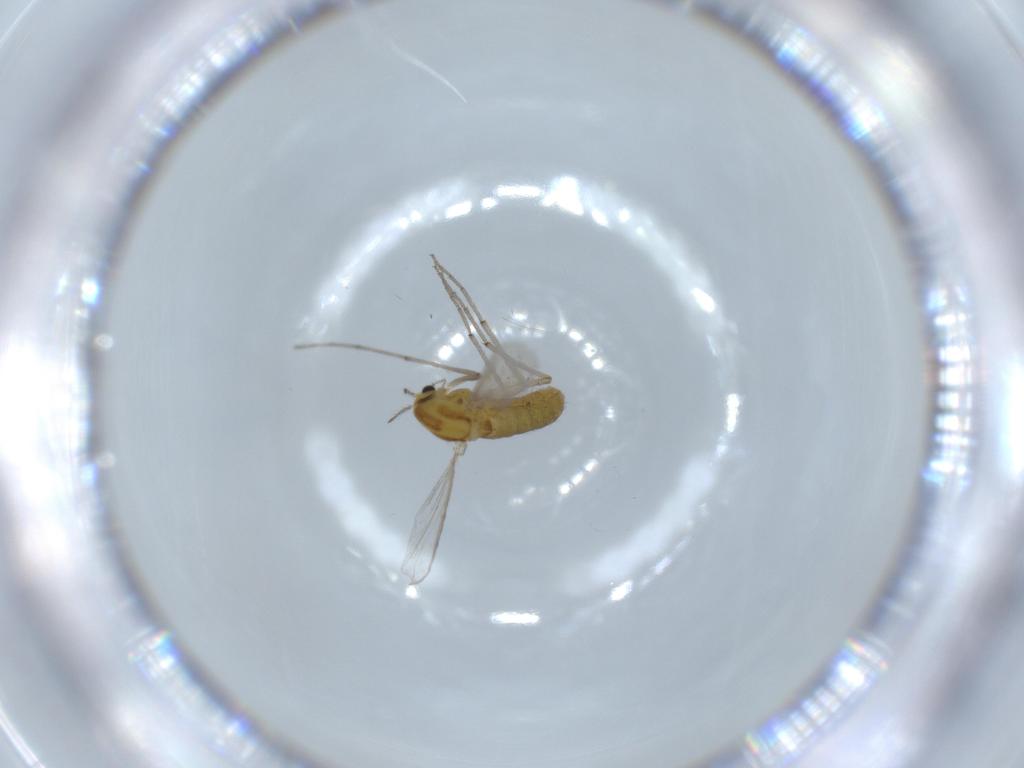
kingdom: Animalia
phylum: Arthropoda
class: Insecta
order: Diptera
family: Chironomidae
